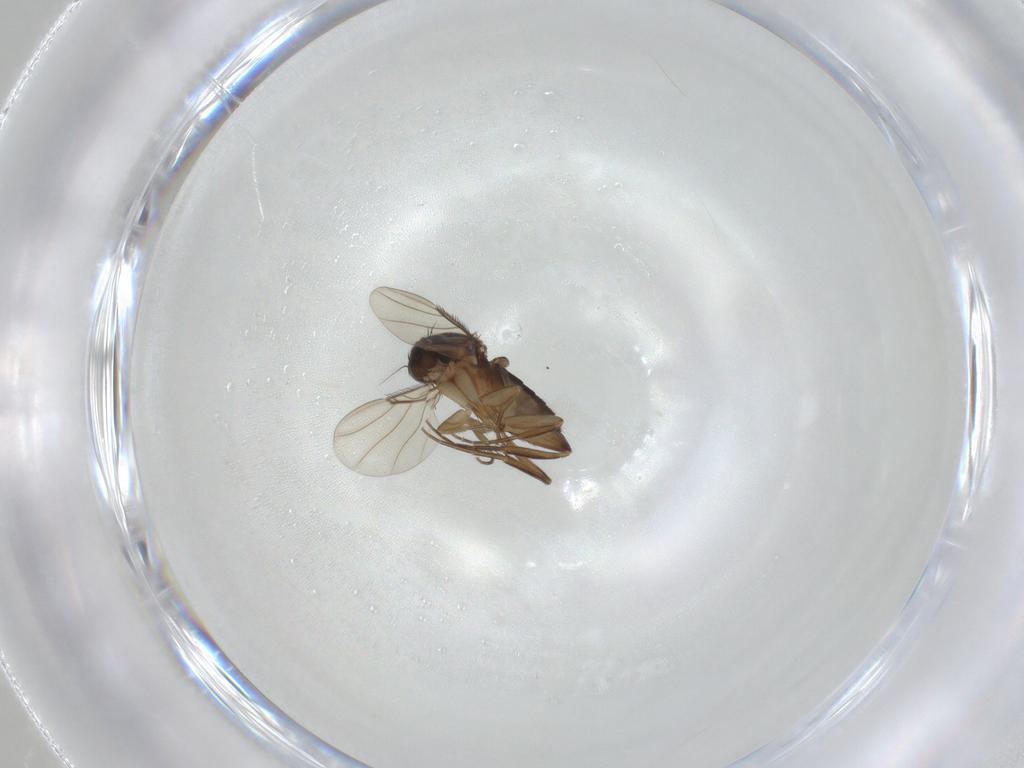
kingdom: Animalia
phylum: Arthropoda
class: Insecta
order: Diptera
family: Phoridae
